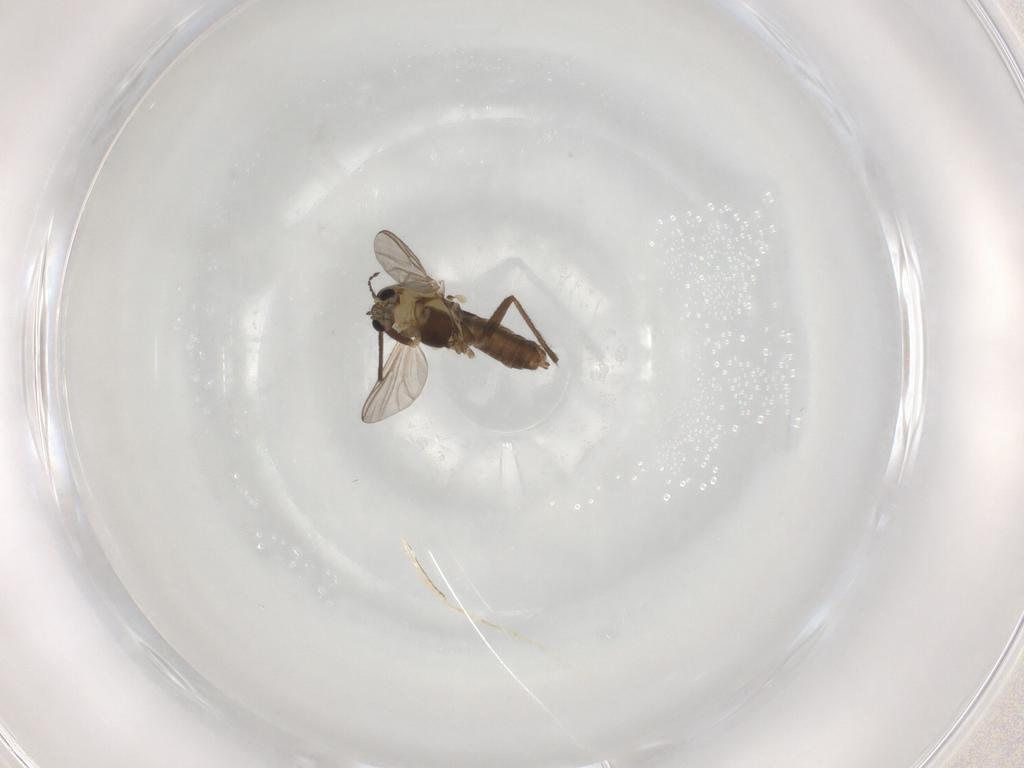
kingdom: Animalia
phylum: Arthropoda
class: Insecta
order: Diptera
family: Chironomidae
